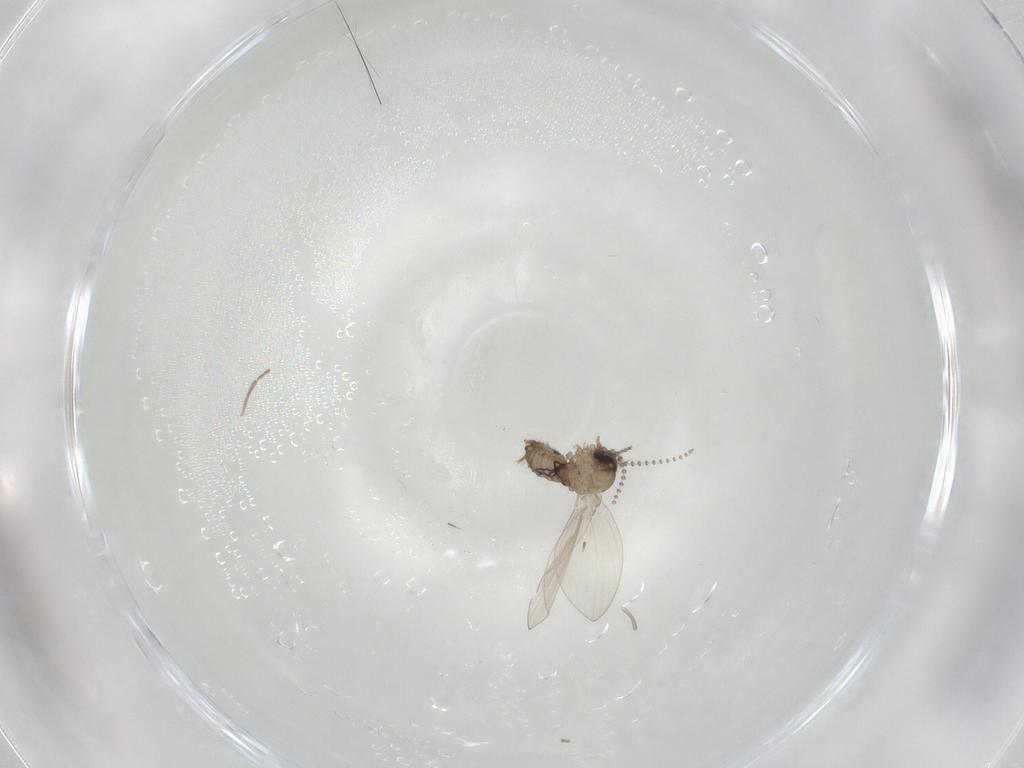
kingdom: Animalia
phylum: Arthropoda
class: Insecta
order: Diptera
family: Psychodidae
